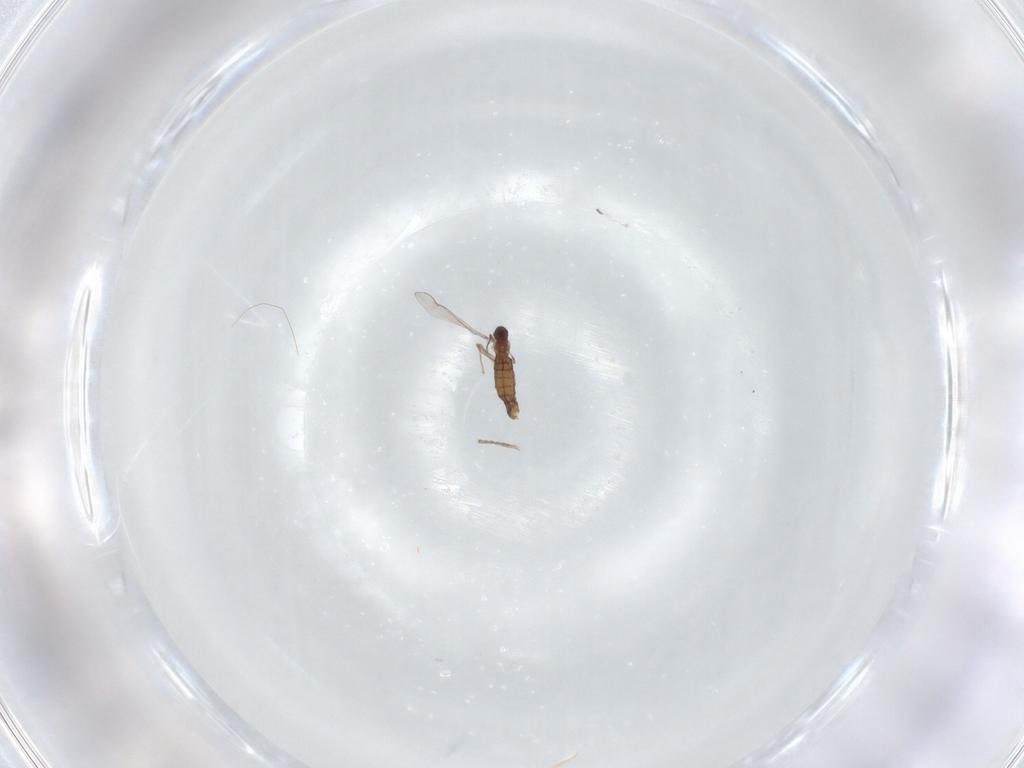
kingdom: Animalia
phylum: Arthropoda
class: Insecta
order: Diptera
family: Chironomidae
